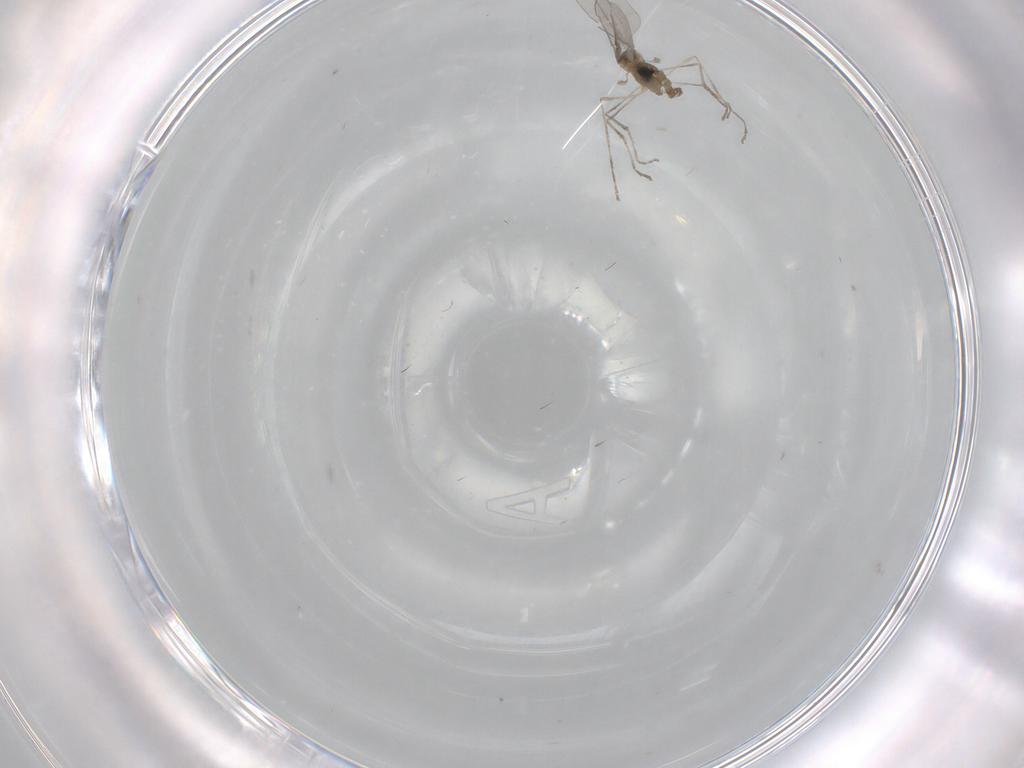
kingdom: Animalia
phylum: Arthropoda
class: Insecta
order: Diptera
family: Cecidomyiidae
